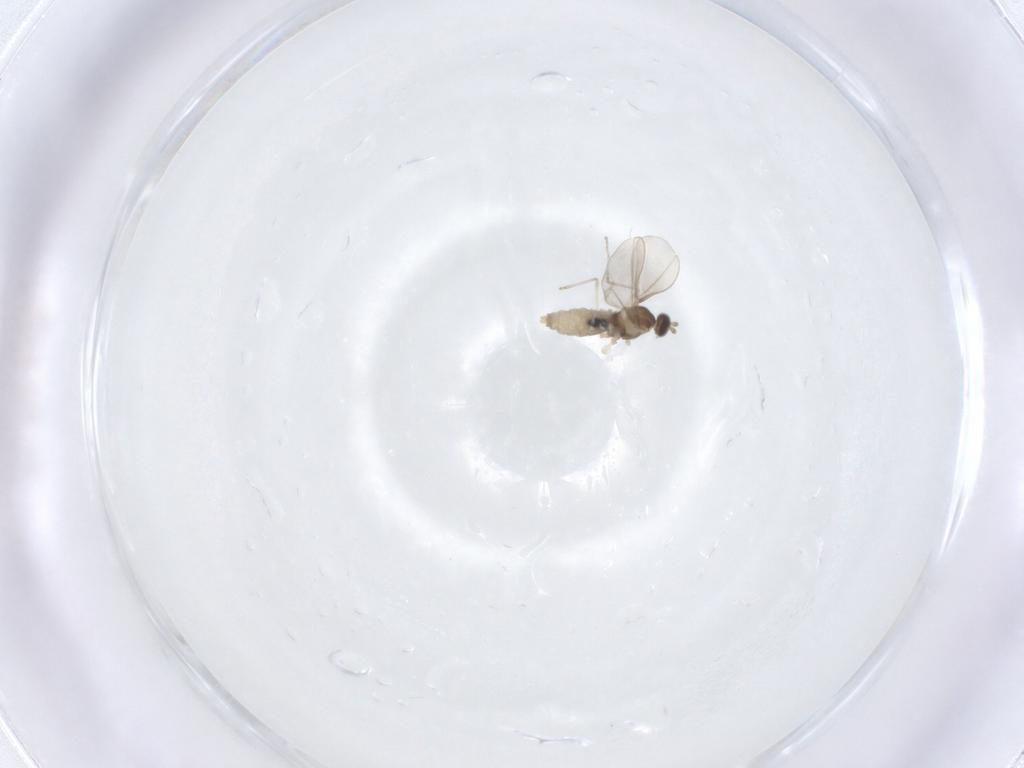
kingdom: Animalia
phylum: Arthropoda
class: Insecta
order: Diptera
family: Cecidomyiidae
